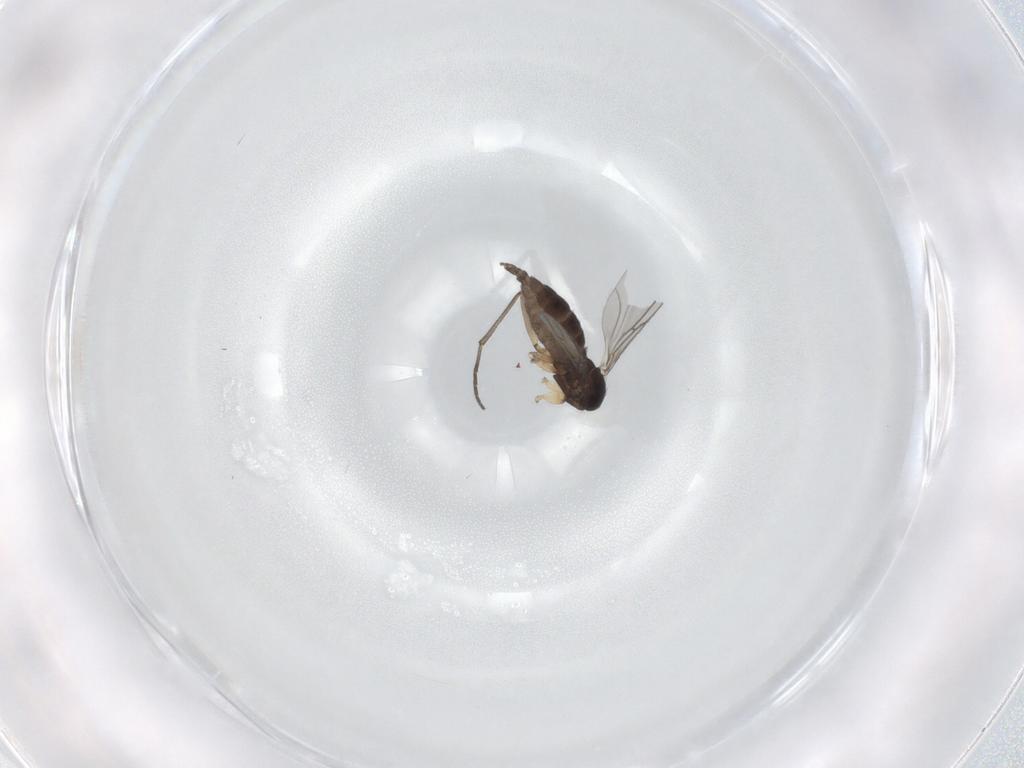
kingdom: Animalia
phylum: Arthropoda
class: Insecta
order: Diptera
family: Sciaridae
